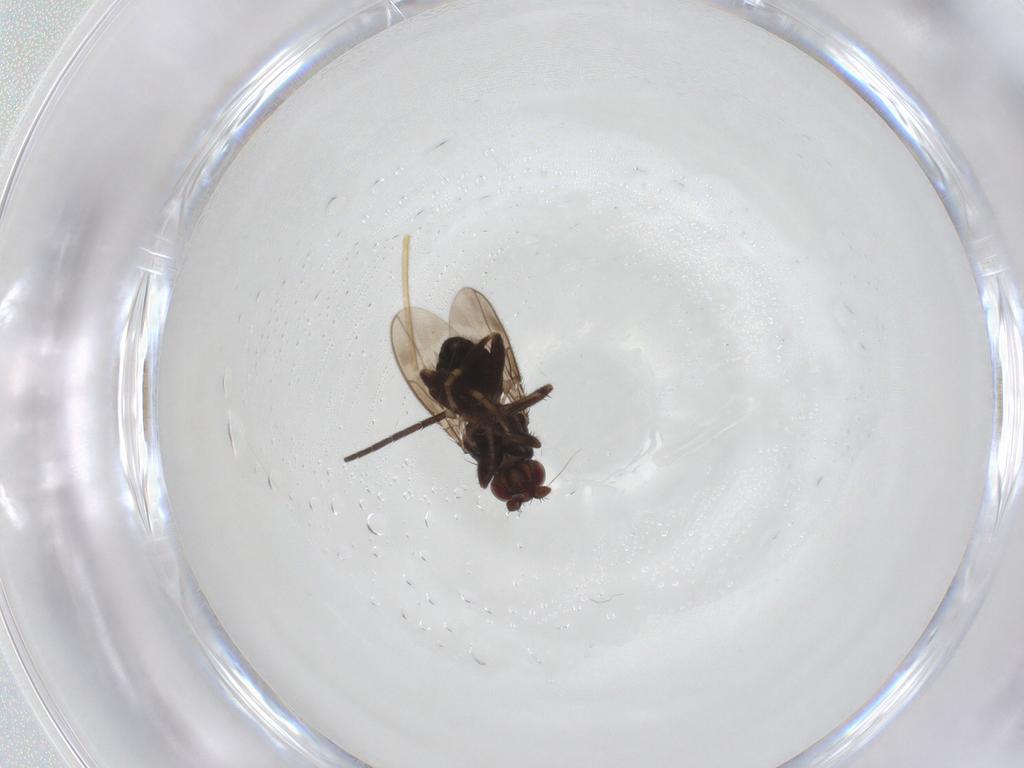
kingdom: Animalia
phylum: Arthropoda
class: Insecta
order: Diptera
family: Sphaeroceridae
